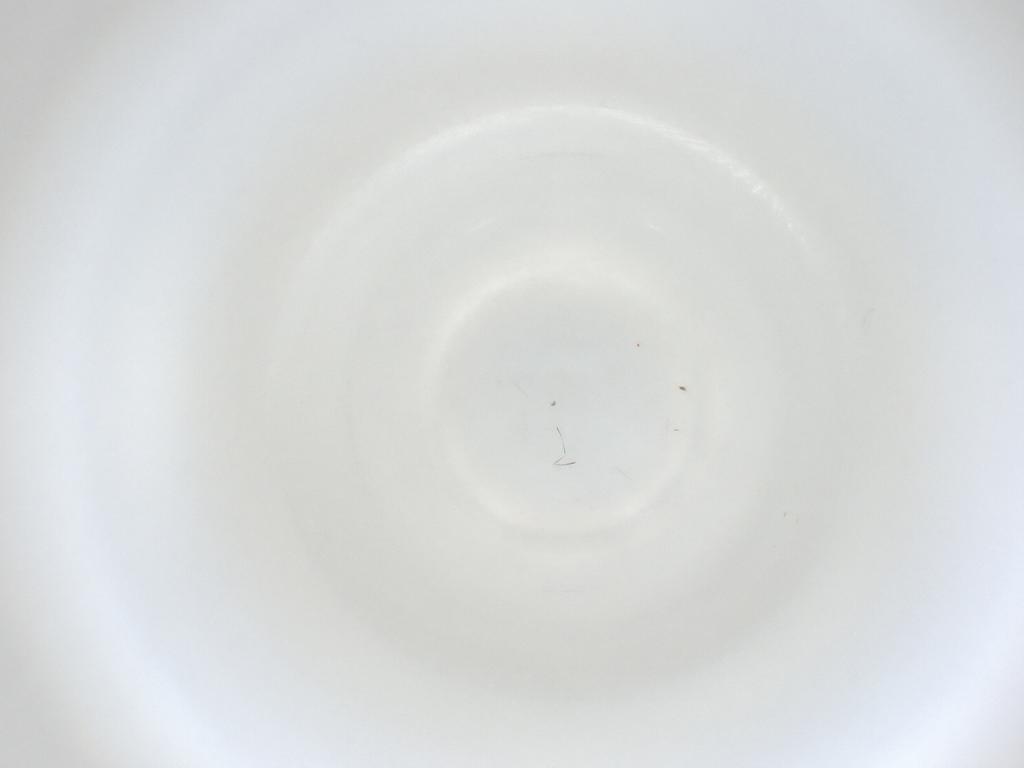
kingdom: Animalia
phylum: Arthropoda
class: Insecta
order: Diptera
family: Cecidomyiidae
